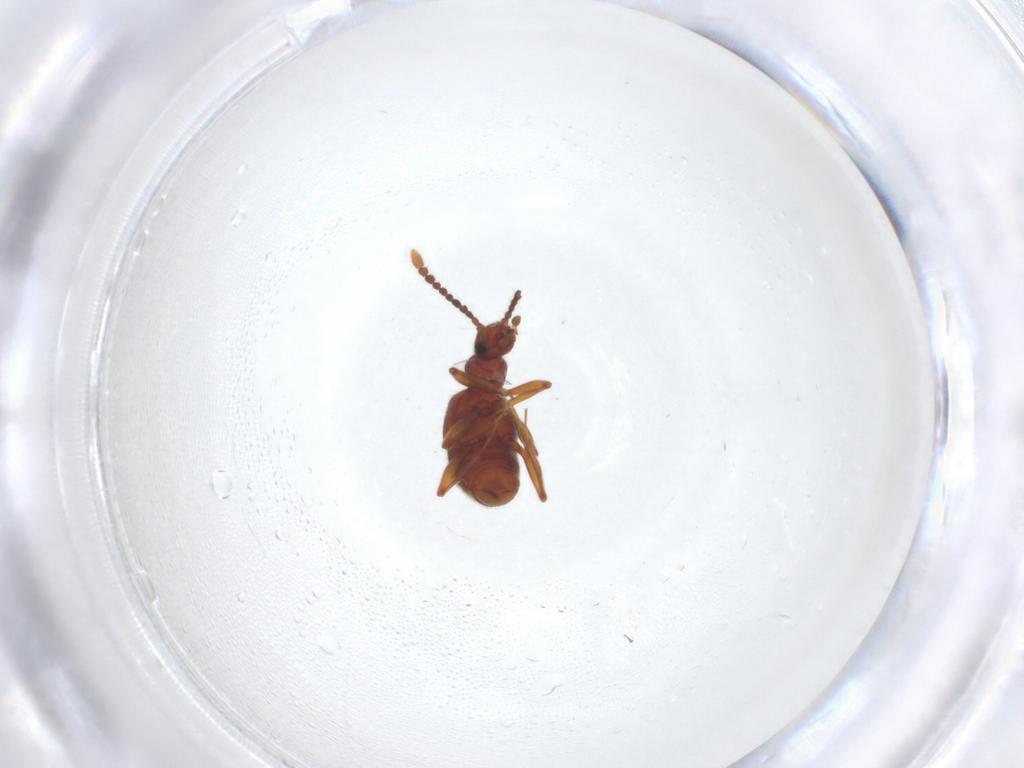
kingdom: Animalia
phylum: Arthropoda
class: Insecta
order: Coleoptera
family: Staphylinidae
